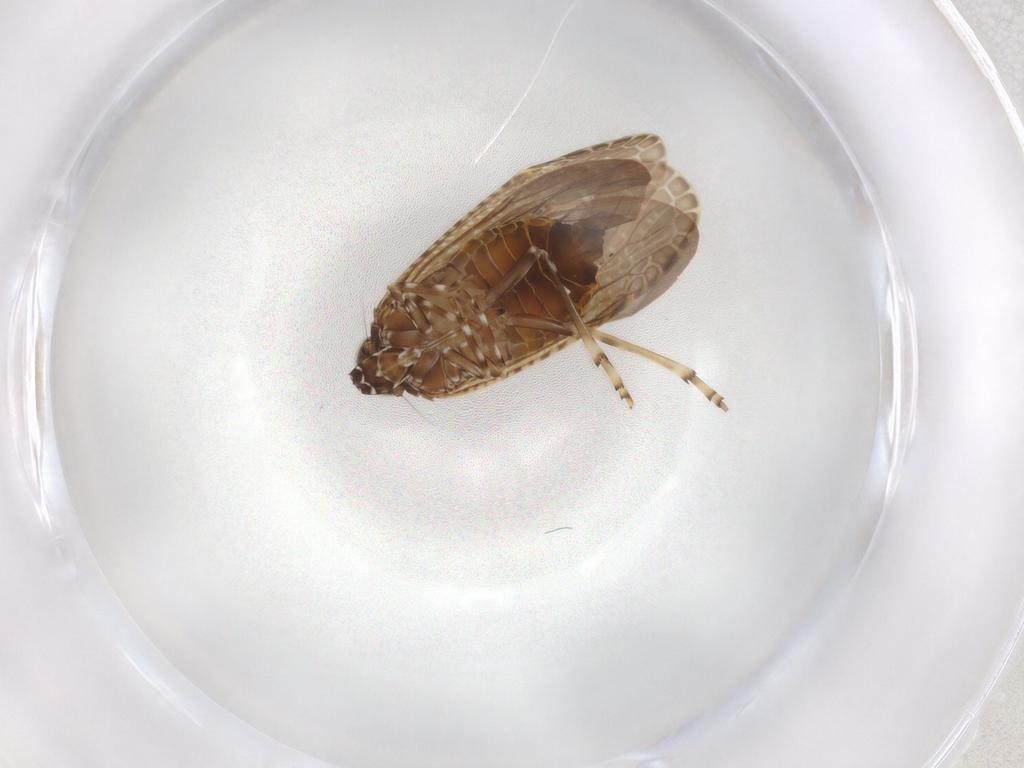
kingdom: Animalia
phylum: Arthropoda
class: Insecta
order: Hemiptera
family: Achilidae
